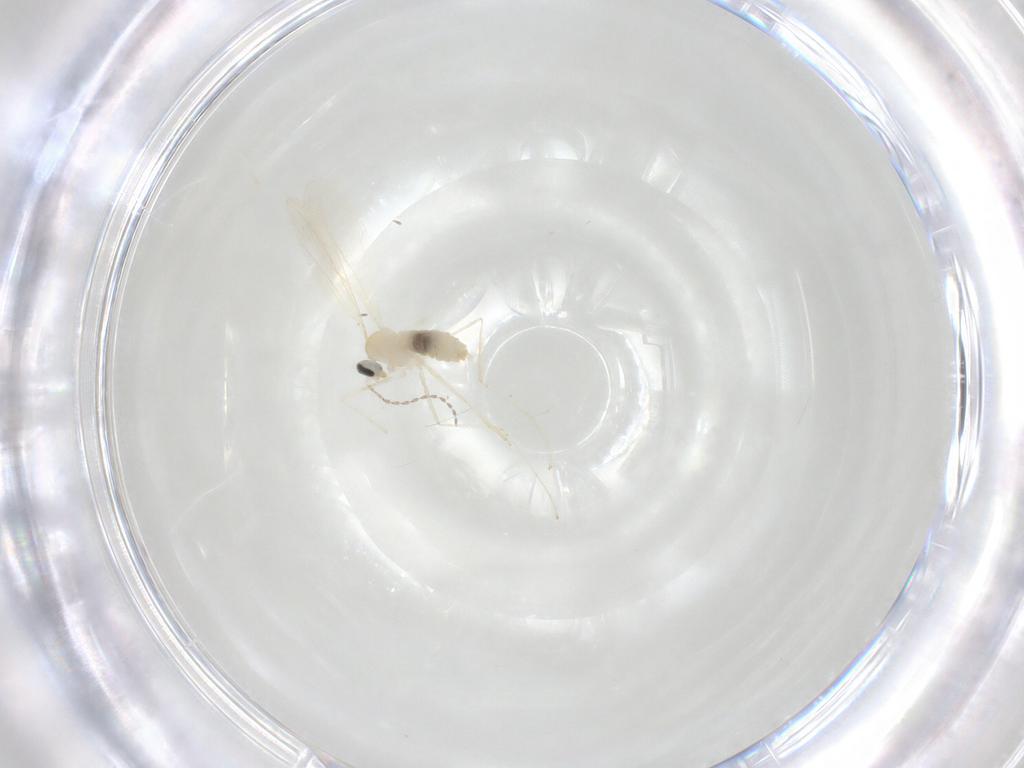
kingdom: Animalia
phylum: Arthropoda
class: Insecta
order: Diptera
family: Cecidomyiidae
